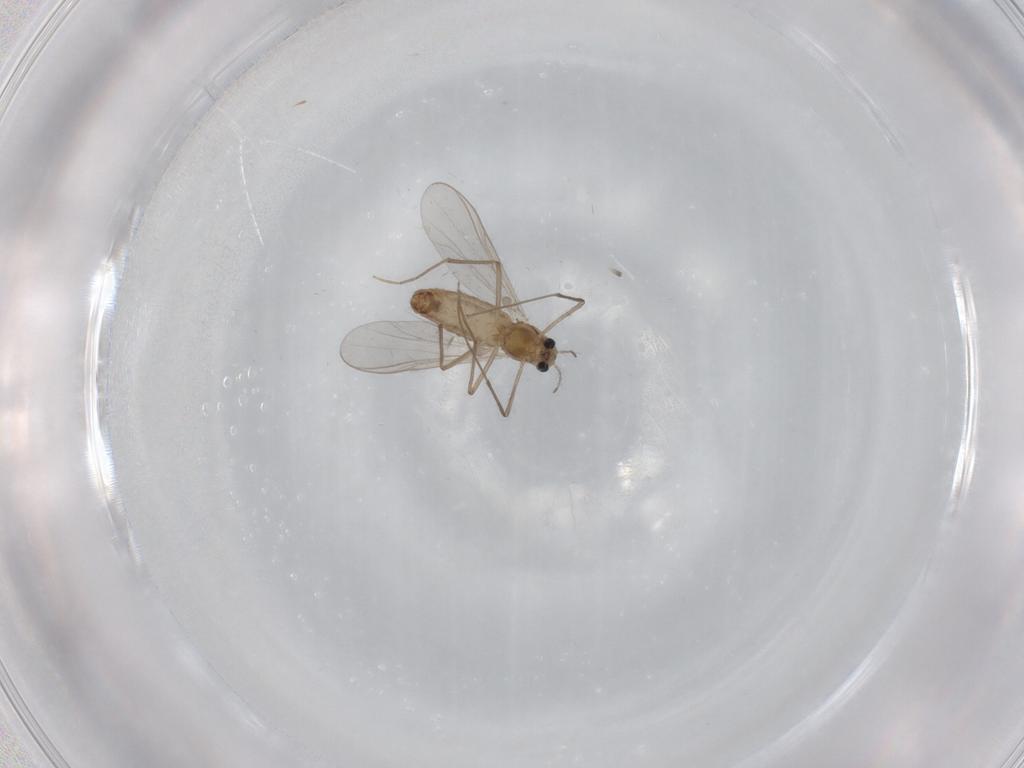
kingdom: Animalia
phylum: Arthropoda
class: Insecta
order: Diptera
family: Chironomidae
